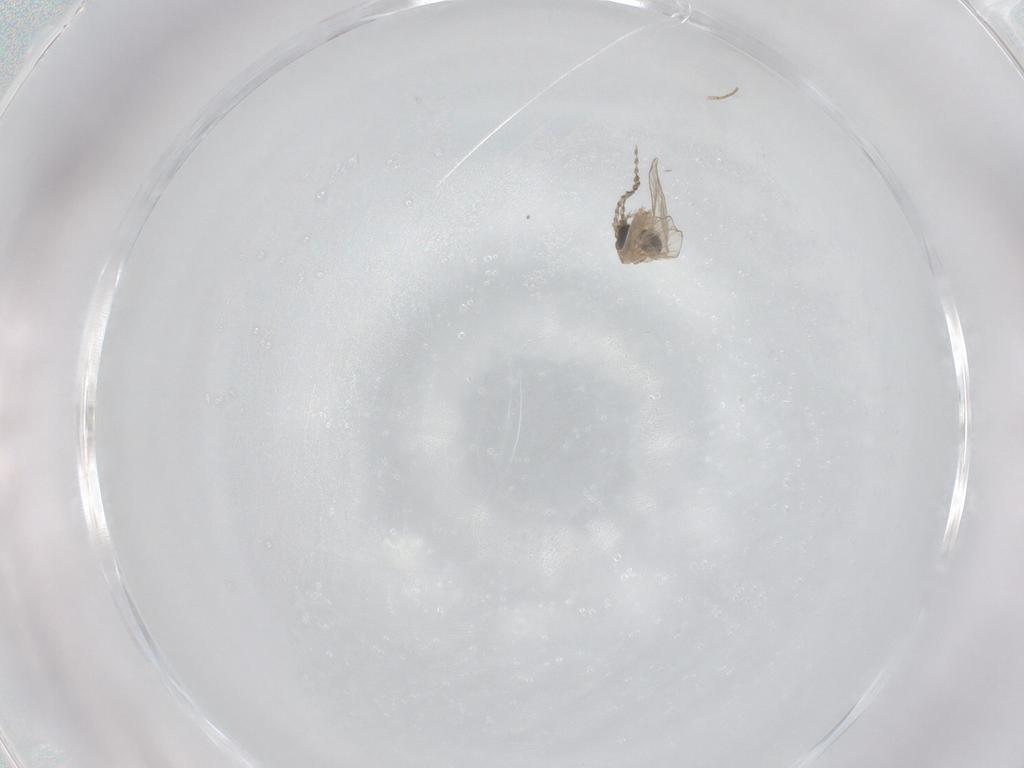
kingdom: Animalia
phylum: Arthropoda
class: Insecta
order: Diptera
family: Psychodidae
